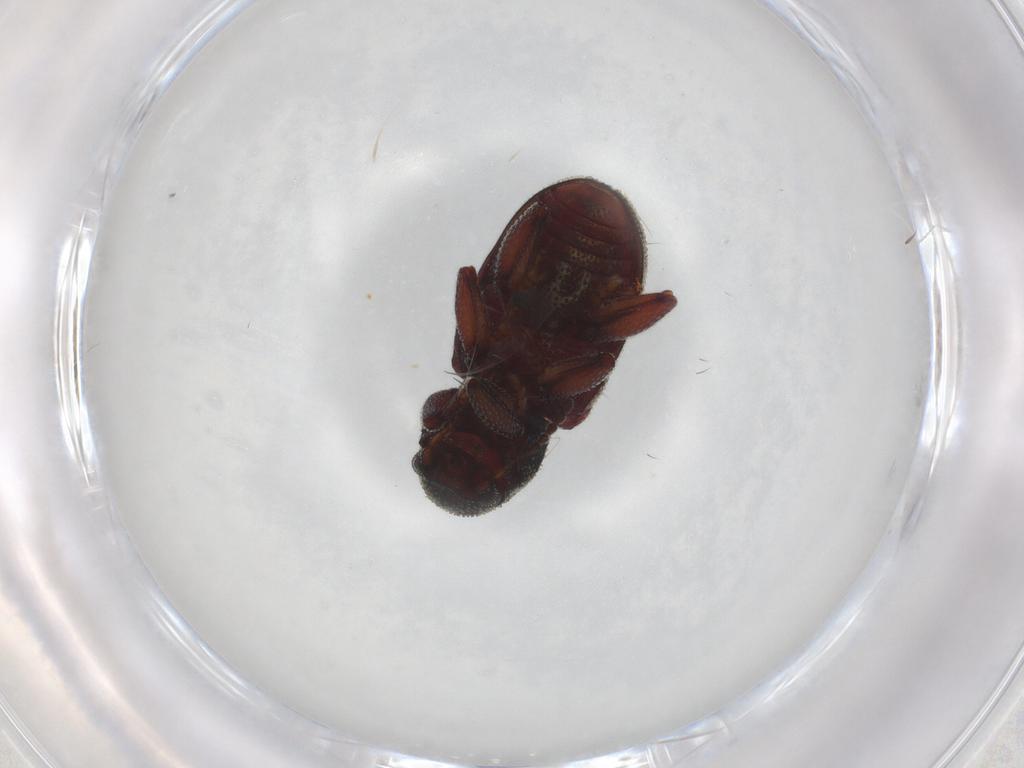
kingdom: Animalia
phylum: Arthropoda
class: Insecta
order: Coleoptera
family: Chrysomelidae
